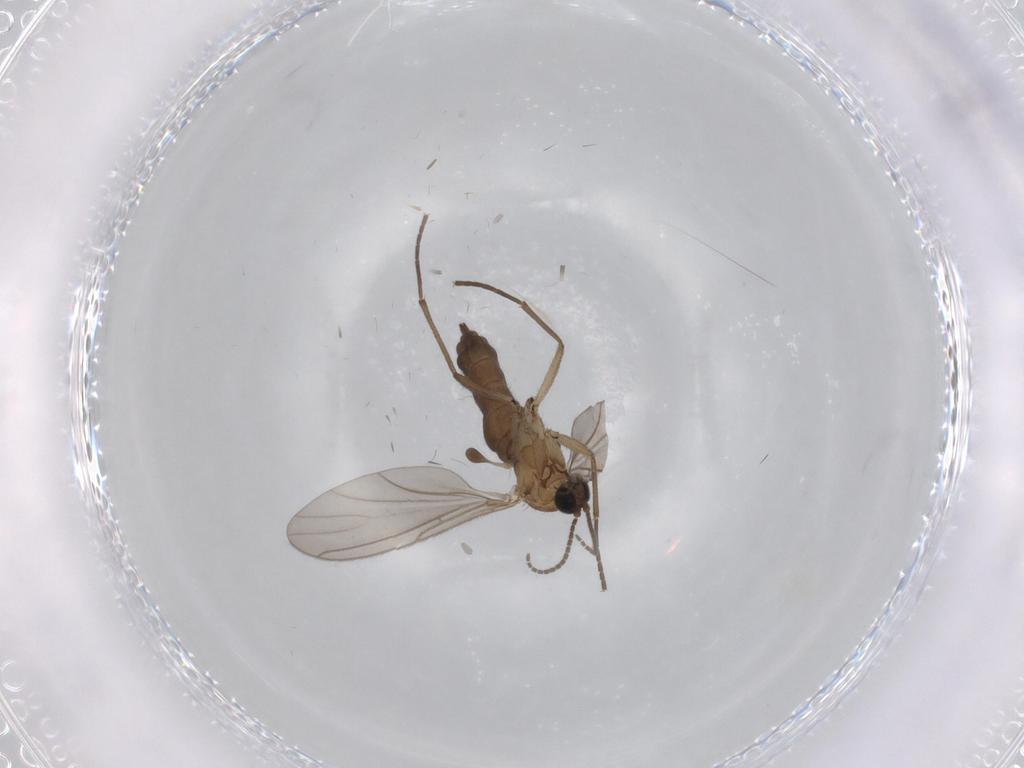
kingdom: Animalia
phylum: Arthropoda
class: Insecta
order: Diptera
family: Sciaridae
